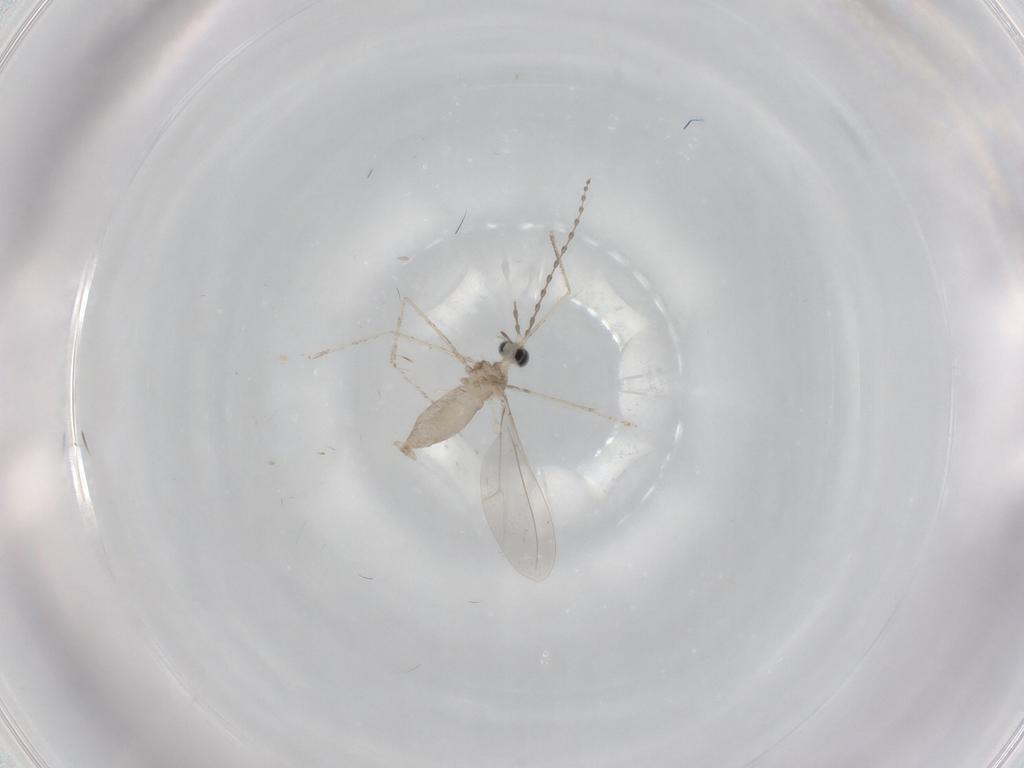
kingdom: Animalia
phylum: Arthropoda
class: Insecta
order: Diptera
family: Cecidomyiidae
